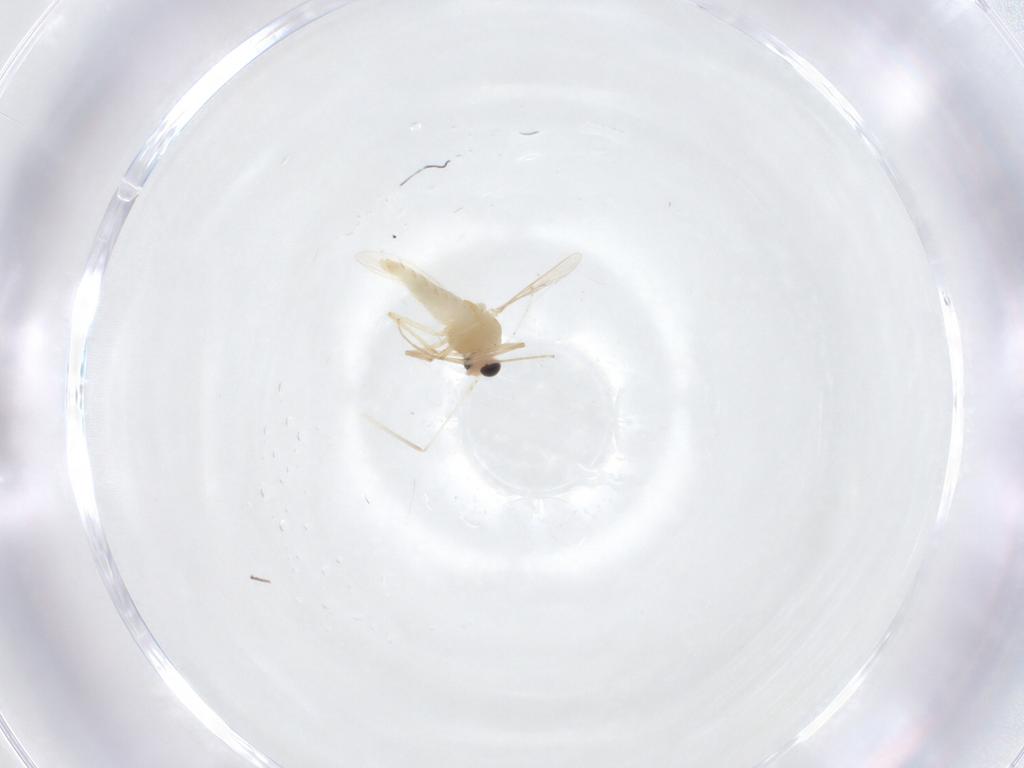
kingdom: Animalia
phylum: Arthropoda
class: Insecta
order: Diptera
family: Chironomidae
